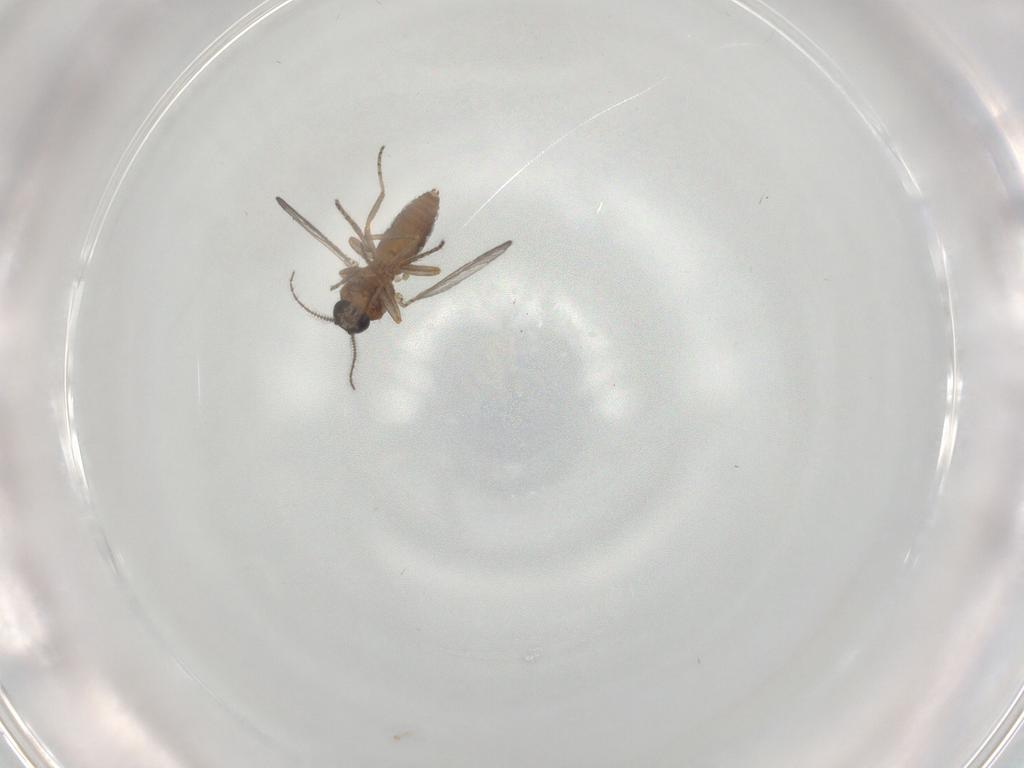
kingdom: Animalia
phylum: Arthropoda
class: Insecta
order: Diptera
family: Ceratopogonidae
